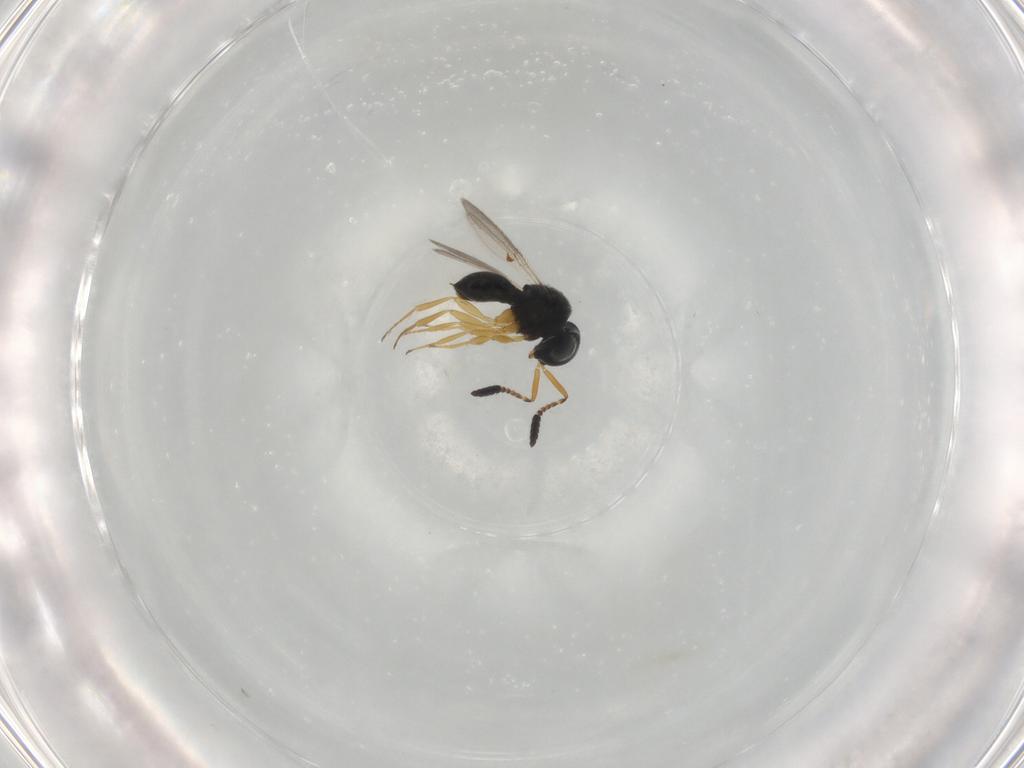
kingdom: Animalia
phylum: Arthropoda
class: Insecta
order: Hymenoptera
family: Scelionidae
